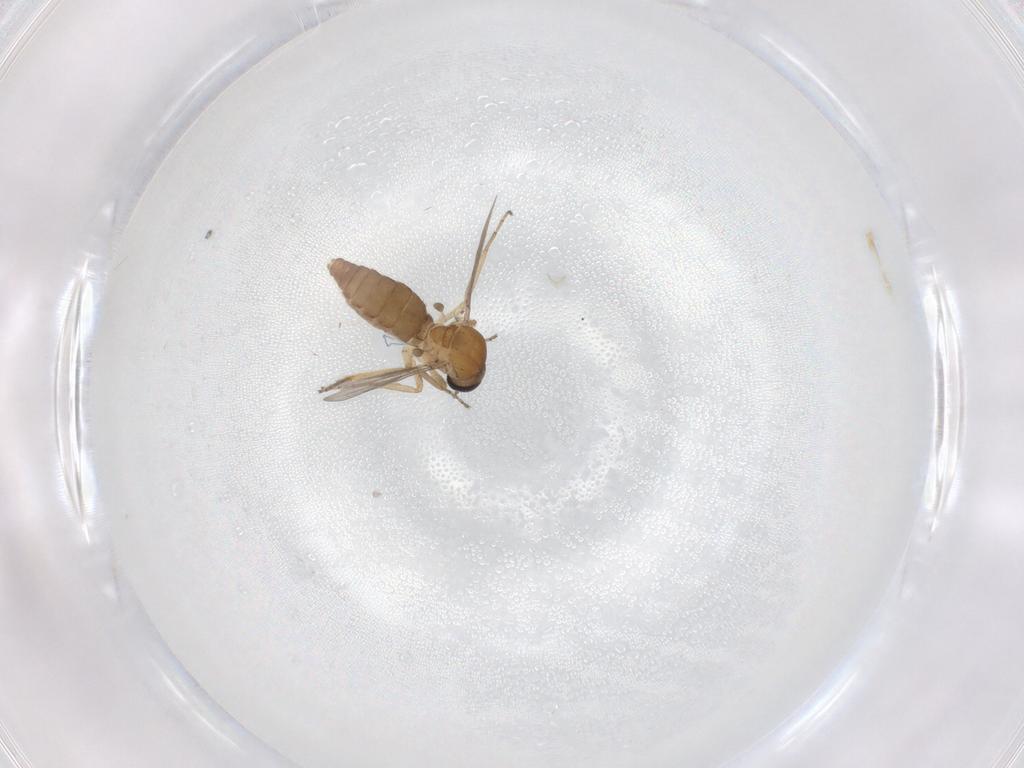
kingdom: Animalia
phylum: Arthropoda
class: Insecta
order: Diptera
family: Ceratopogonidae
